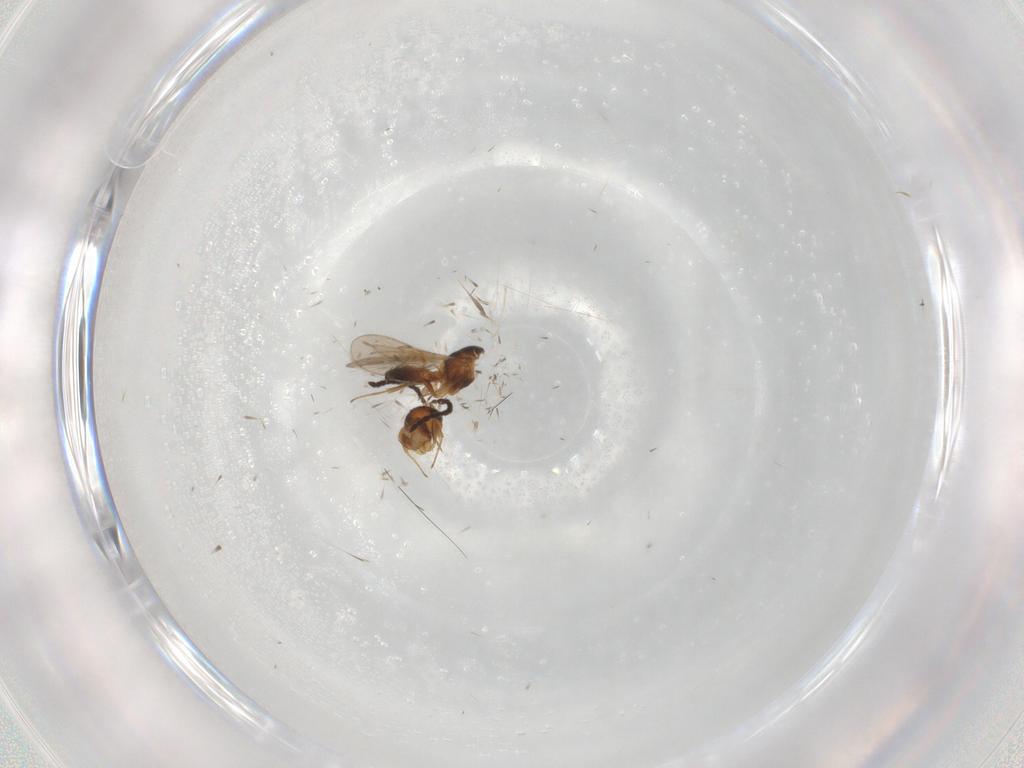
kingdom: Animalia
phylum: Arthropoda
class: Insecta
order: Hymenoptera
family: Scelionidae
